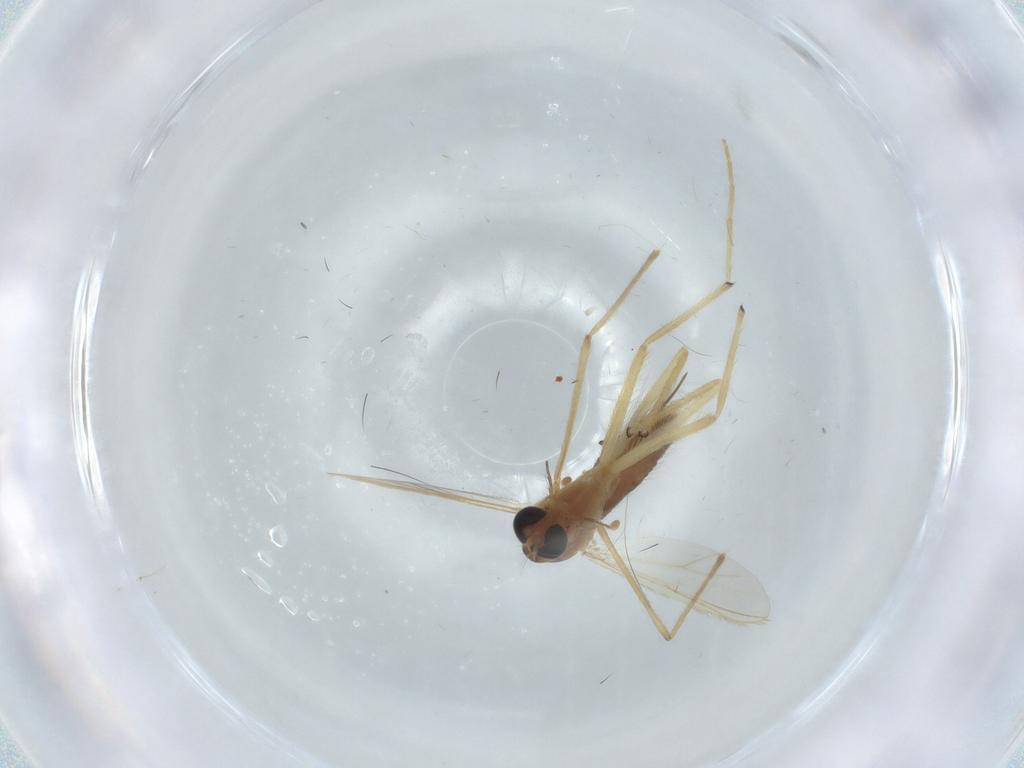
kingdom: Animalia
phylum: Arthropoda
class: Insecta
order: Diptera
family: Chironomidae
